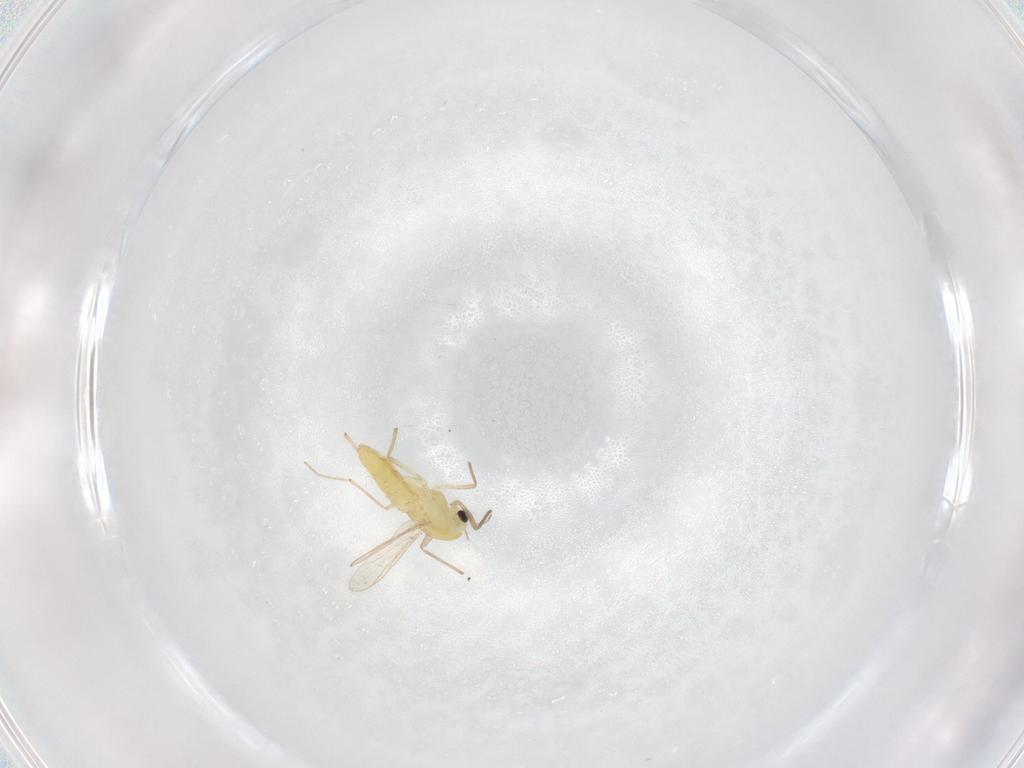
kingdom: Animalia
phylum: Arthropoda
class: Insecta
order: Diptera
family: Chironomidae
